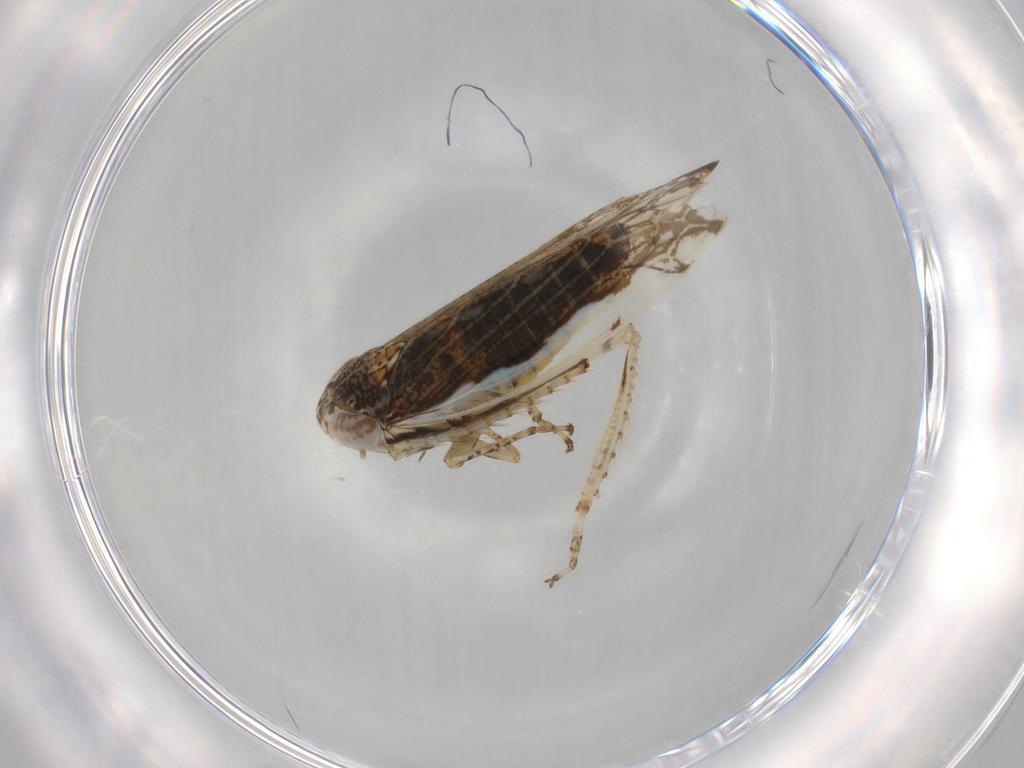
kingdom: Animalia
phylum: Arthropoda
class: Insecta
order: Hemiptera
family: Cicadellidae
